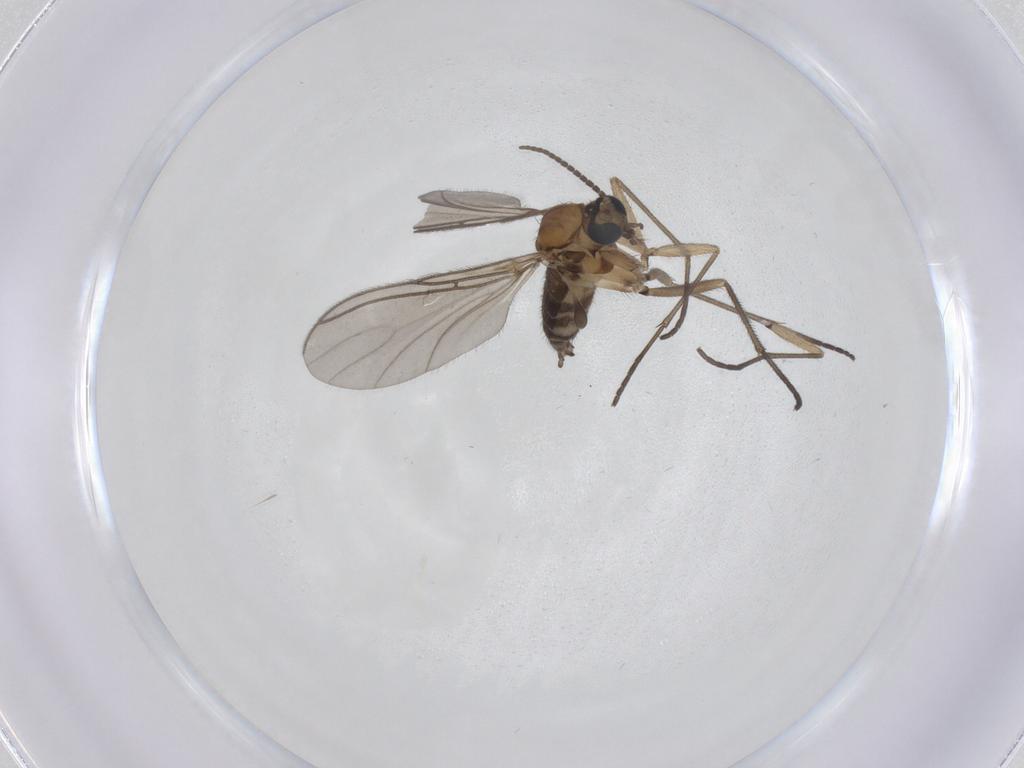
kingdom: Animalia
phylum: Arthropoda
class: Insecta
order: Diptera
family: Sciaridae
